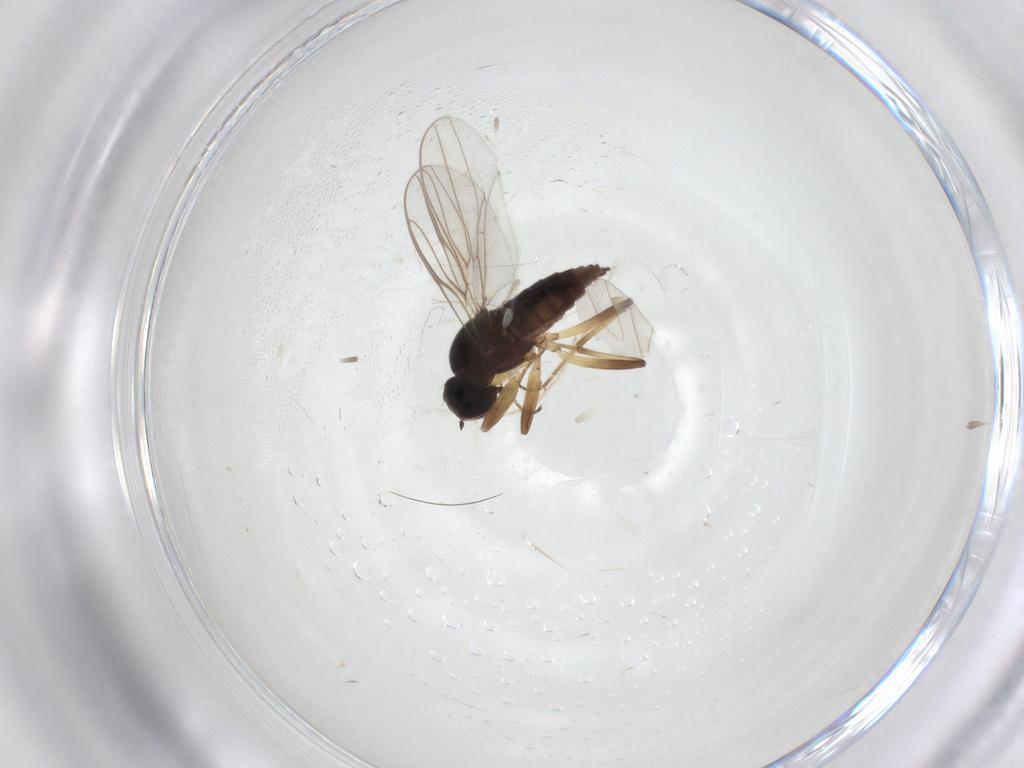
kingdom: Animalia
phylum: Arthropoda
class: Insecta
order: Diptera
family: Hybotidae
